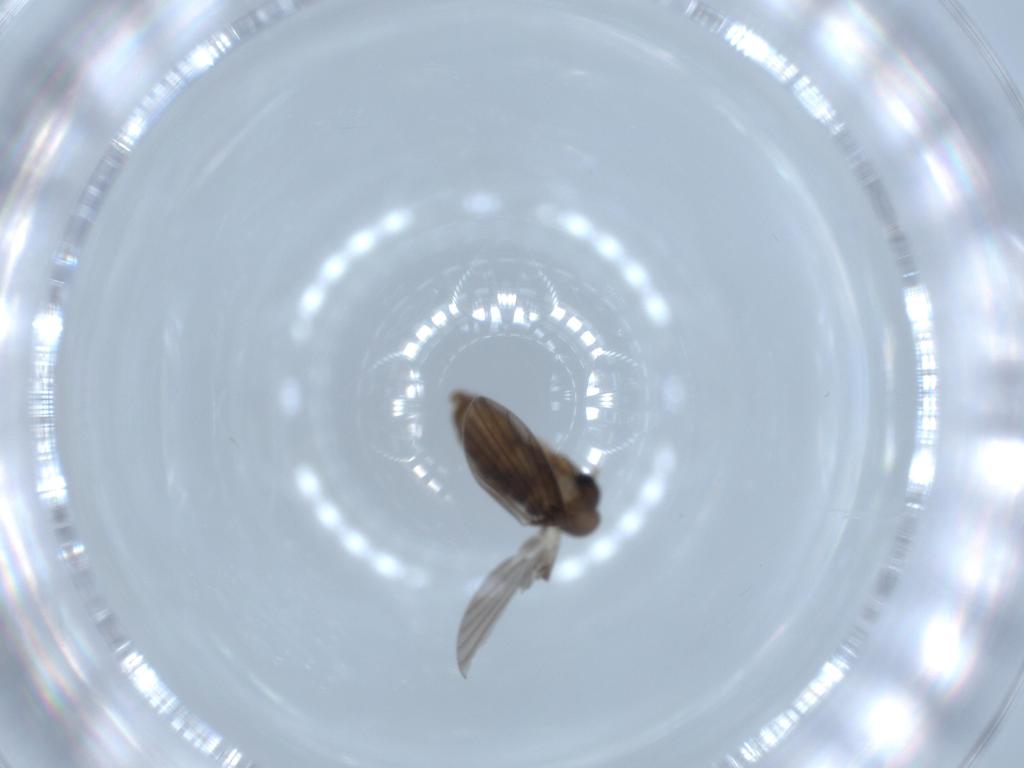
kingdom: Animalia
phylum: Arthropoda
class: Insecta
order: Diptera
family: Psychodidae
